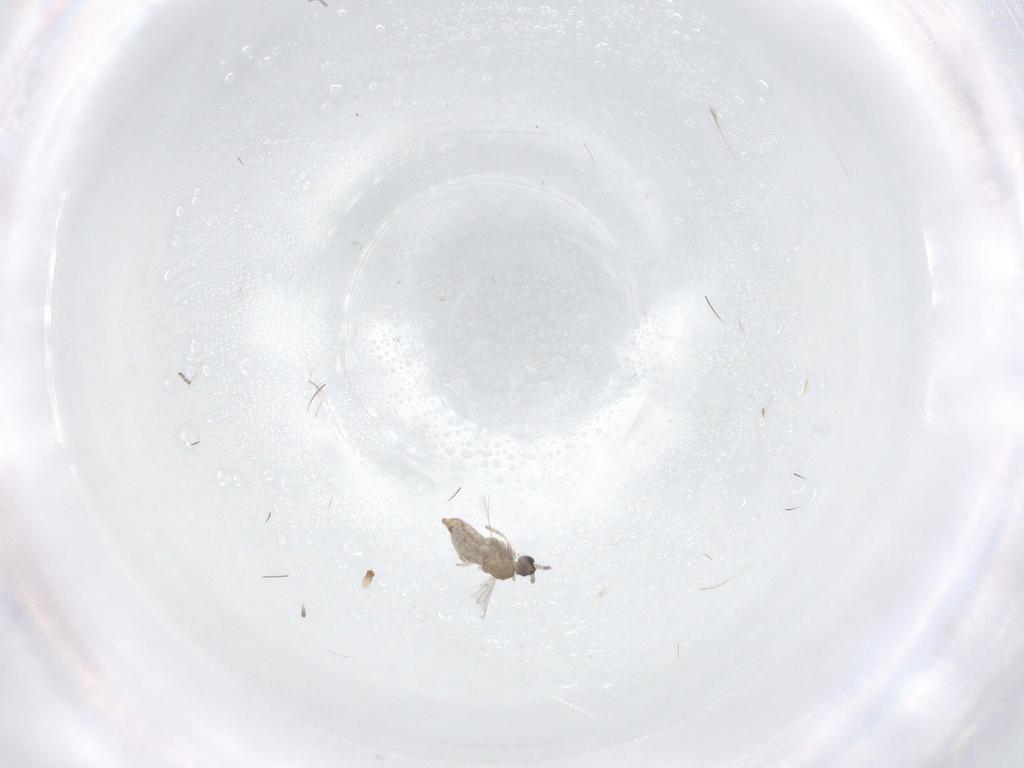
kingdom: Animalia
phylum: Arthropoda
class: Insecta
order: Diptera
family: Cecidomyiidae
